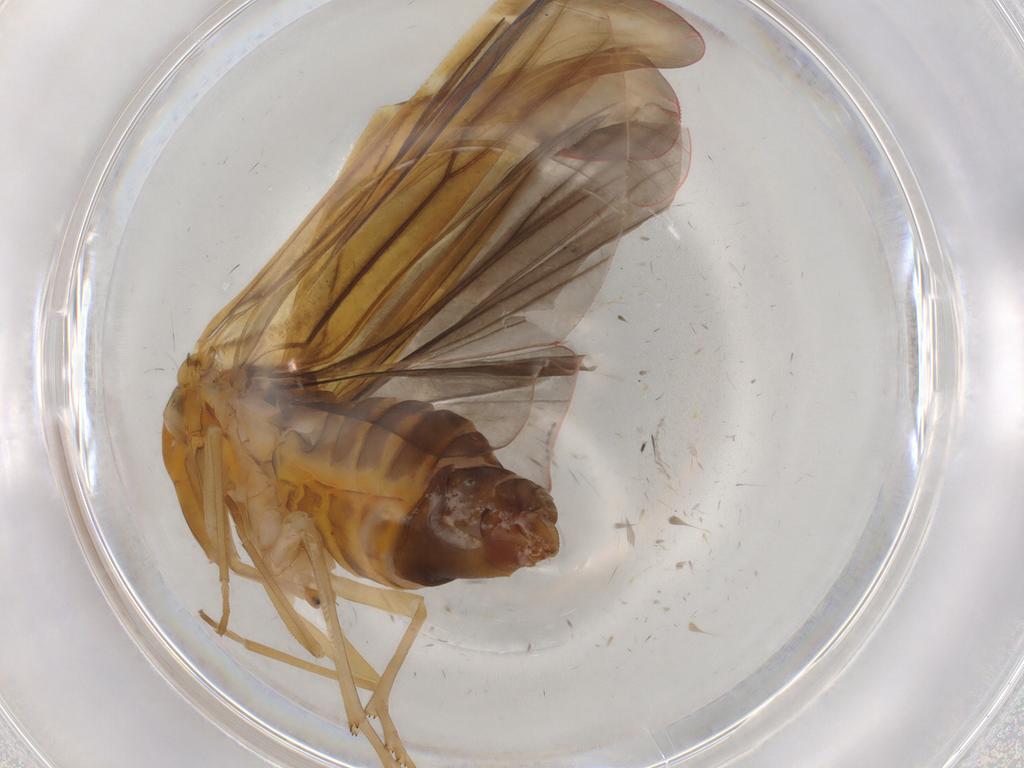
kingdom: Animalia
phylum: Arthropoda
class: Insecta
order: Hemiptera
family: Derbidae
